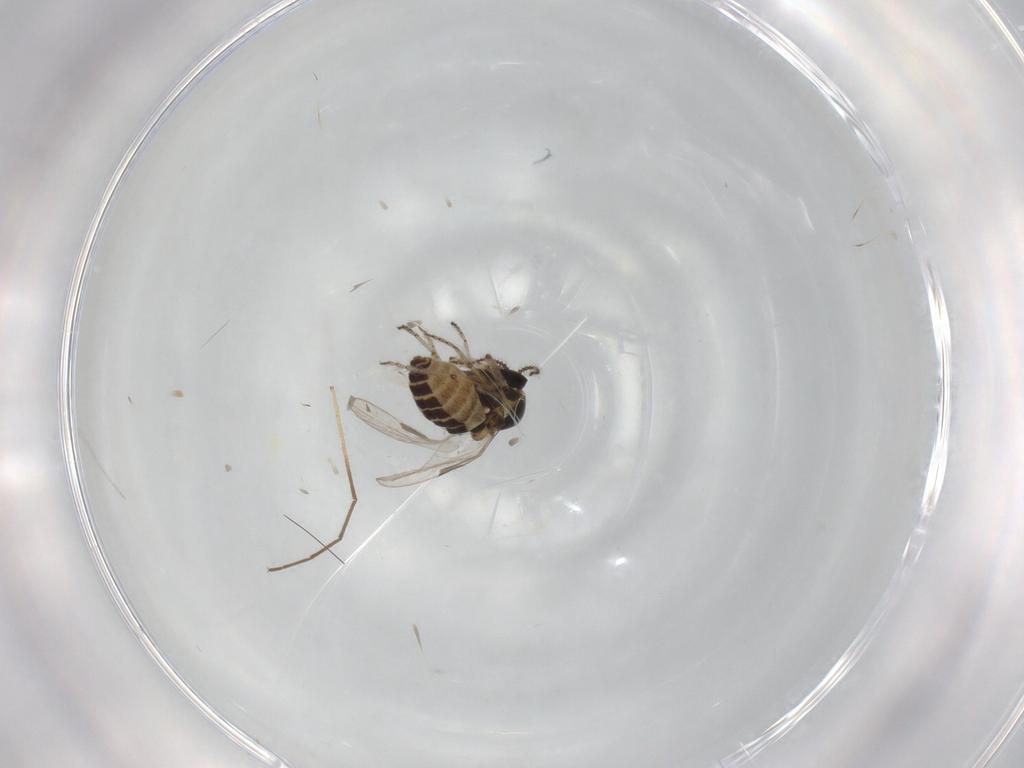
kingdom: Animalia
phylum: Arthropoda
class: Insecta
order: Diptera
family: Ceratopogonidae
